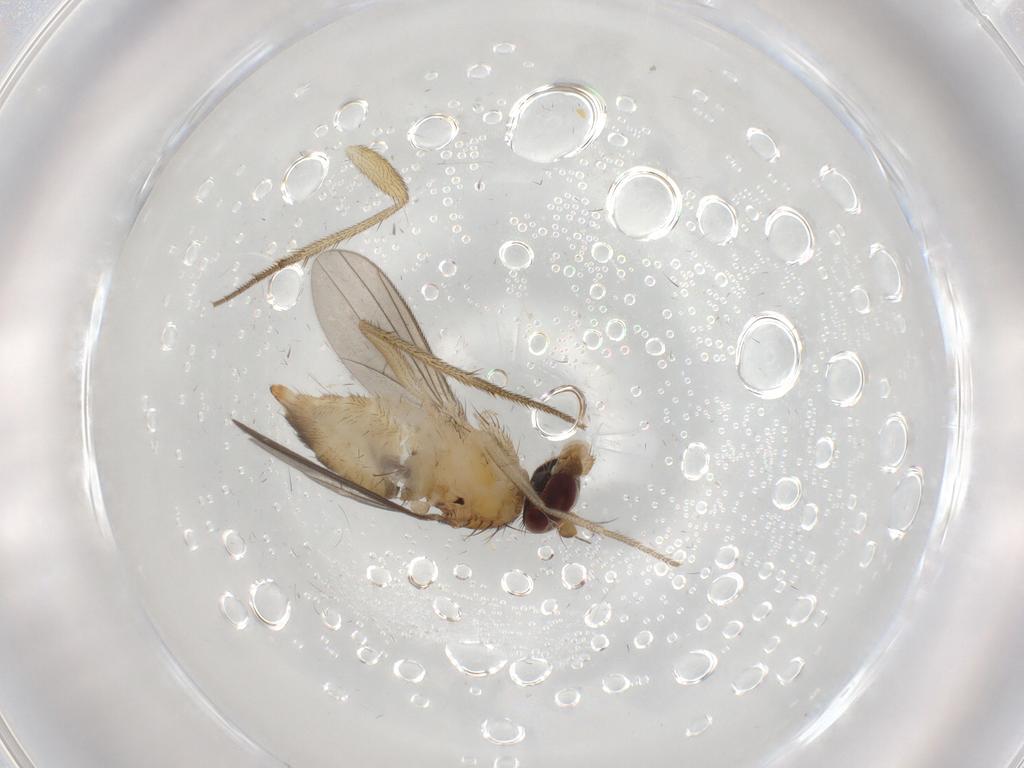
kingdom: Animalia
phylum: Arthropoda
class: Insecta
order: Diptera
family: Dolichopodidae
